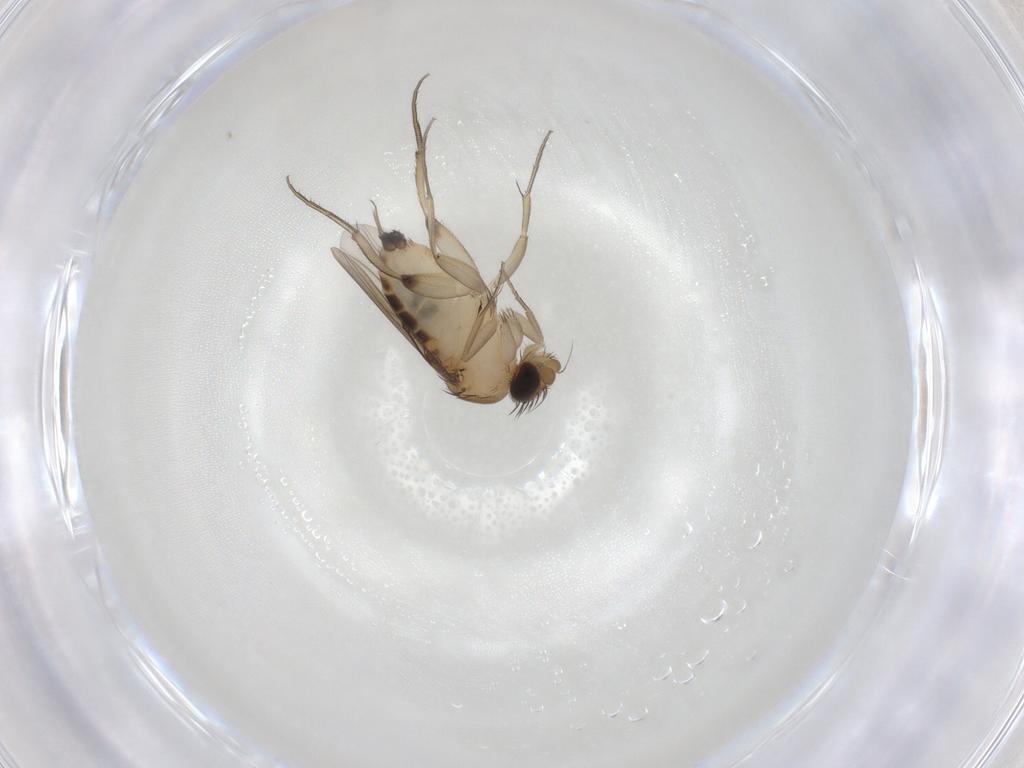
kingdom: Animalia
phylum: Arthropoda
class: Insecta
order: Diptera
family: Phoridae
